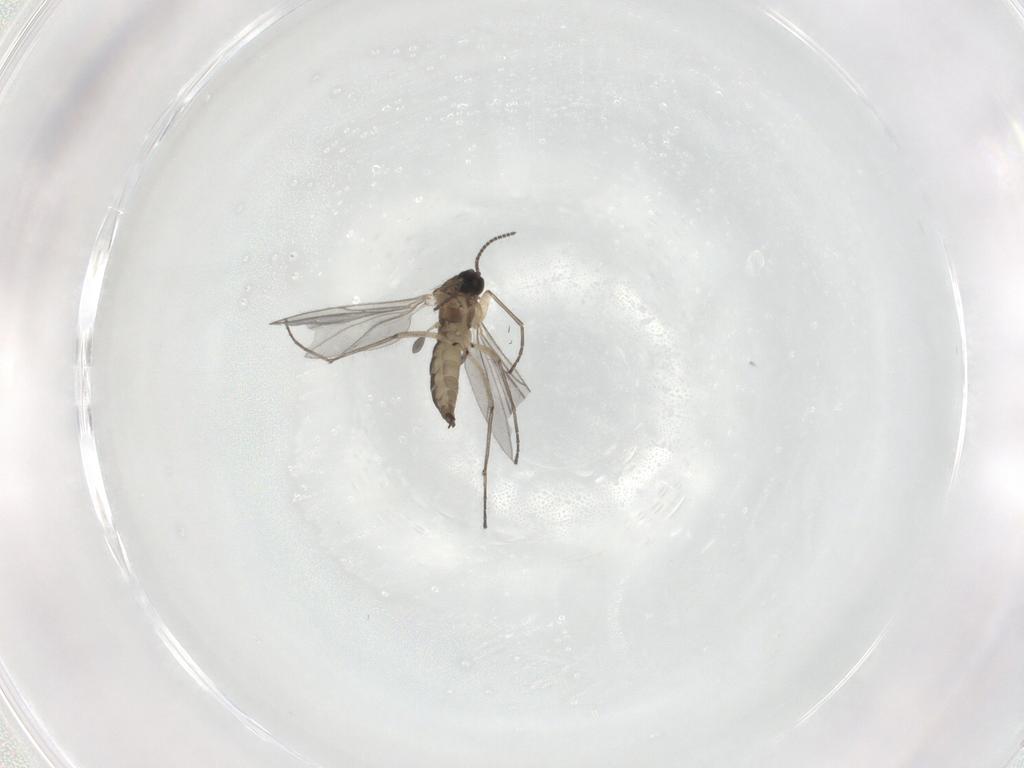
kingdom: Animalia
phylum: Arthropoda
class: Insecta
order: Diptera
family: Sciaridae
